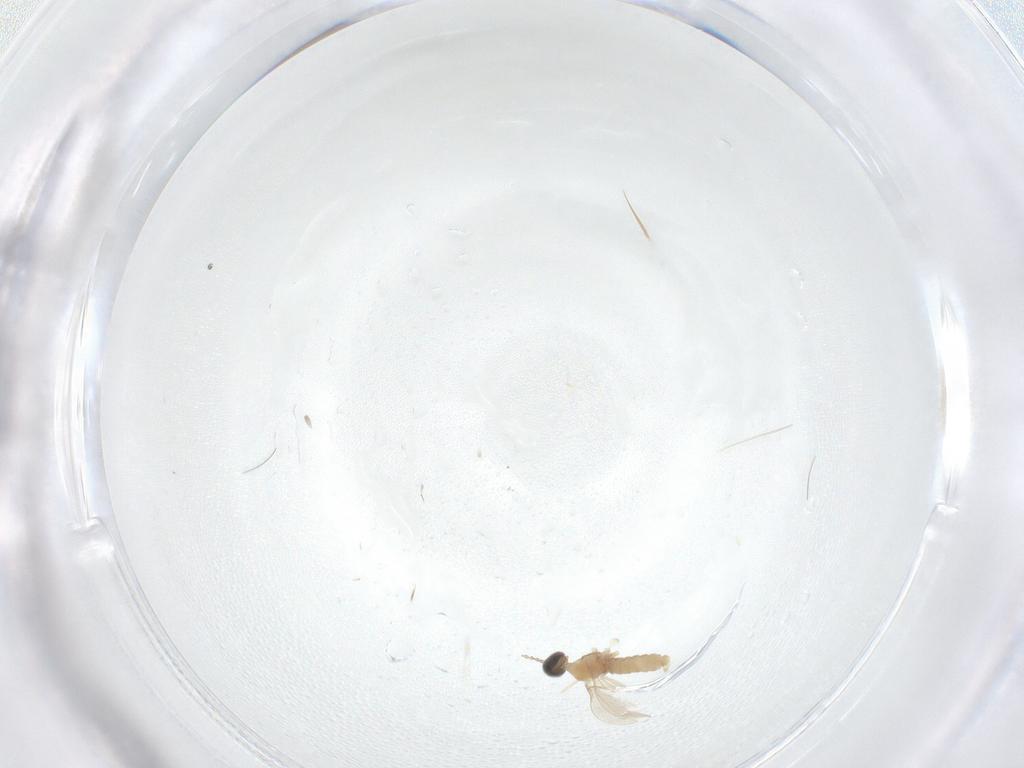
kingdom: Animalia
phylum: Arthropoda
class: Insecta
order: Diptera
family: Cecidomyiidae
